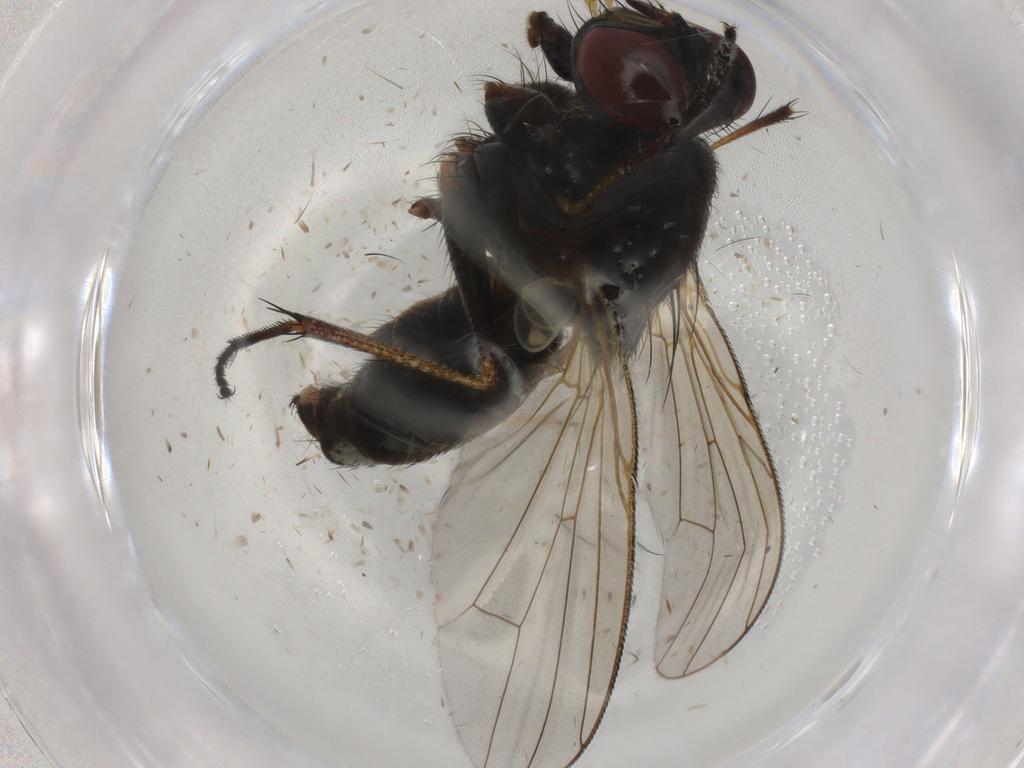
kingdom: Animalia
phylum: Arthropoda
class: Insecta
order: Diptera
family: Muscidae
